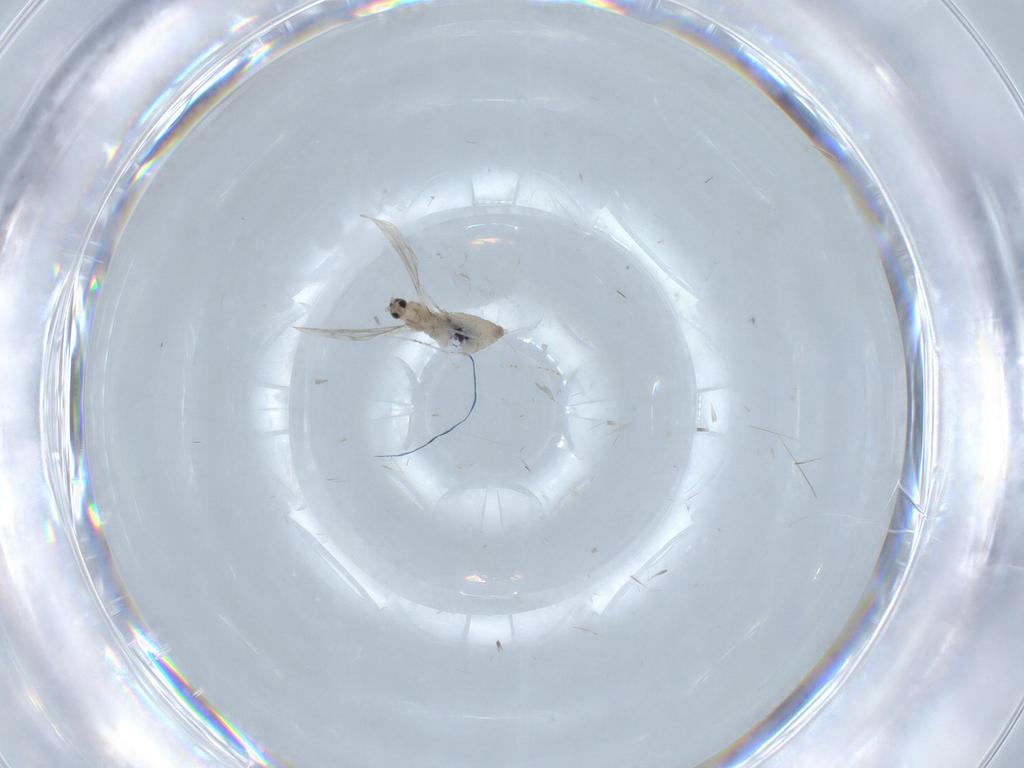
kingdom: Animalia
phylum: Arthropoda
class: Insecta
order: Diptera
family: Cecidomyiidae
